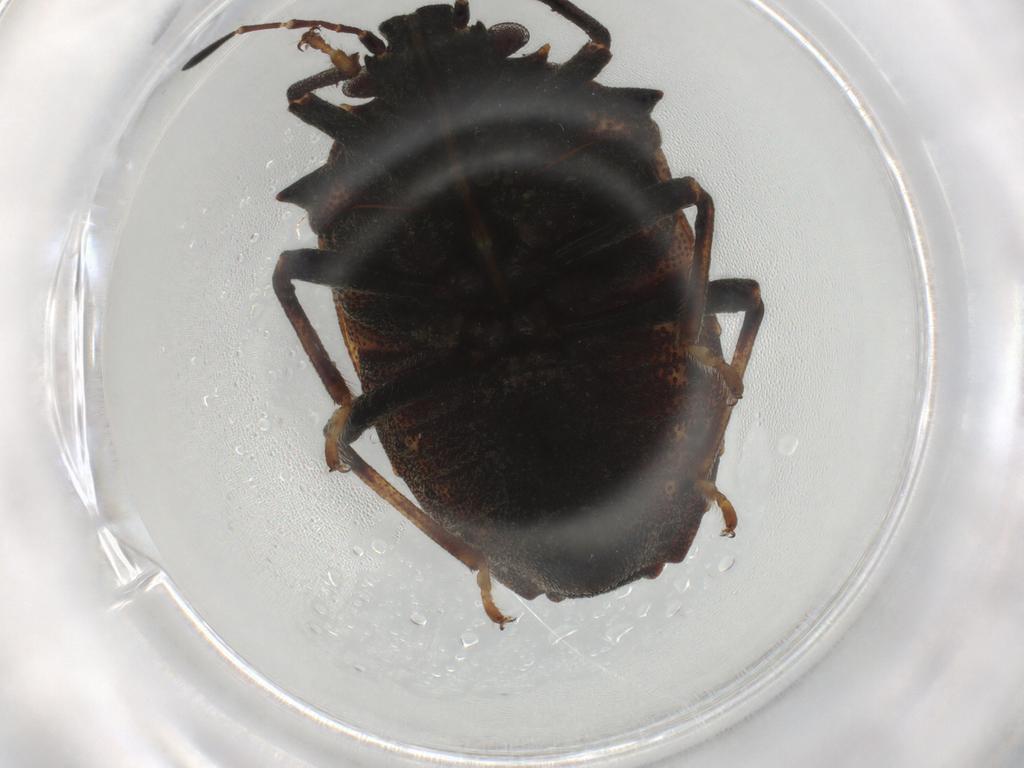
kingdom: Animalia
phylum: Arthropoda
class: Insecta
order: Hemiptera
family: Pentatomidae
